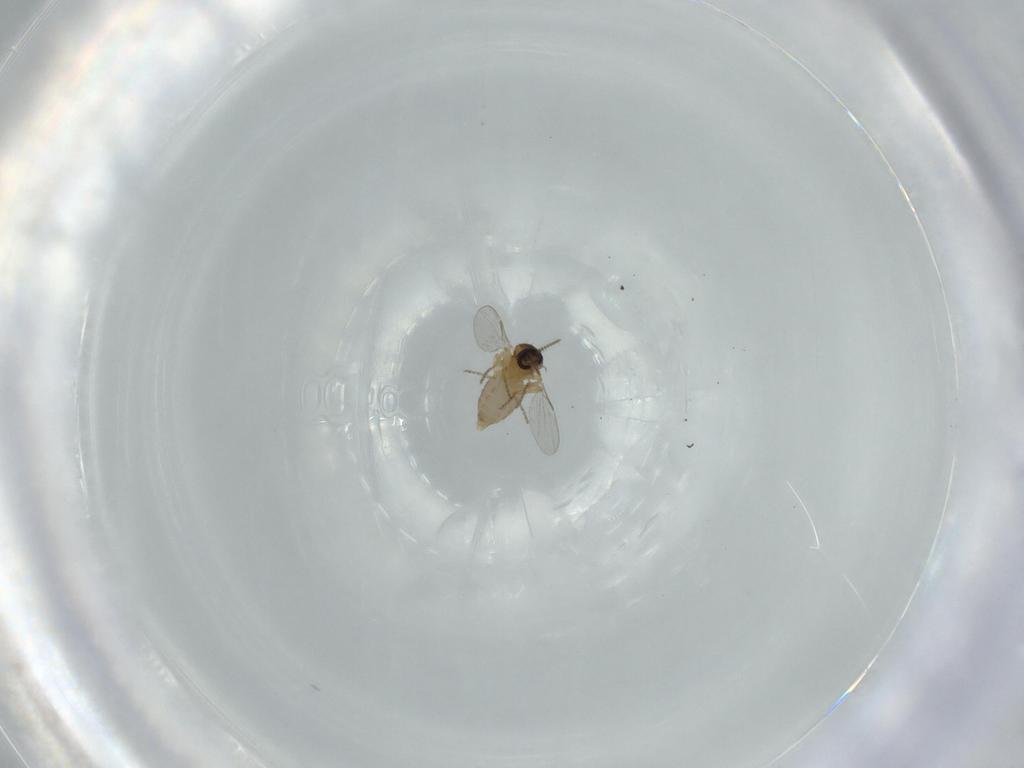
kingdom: Animalia
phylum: Arthropoda
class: Insecta
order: Diptera
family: Ceratopogonidae
